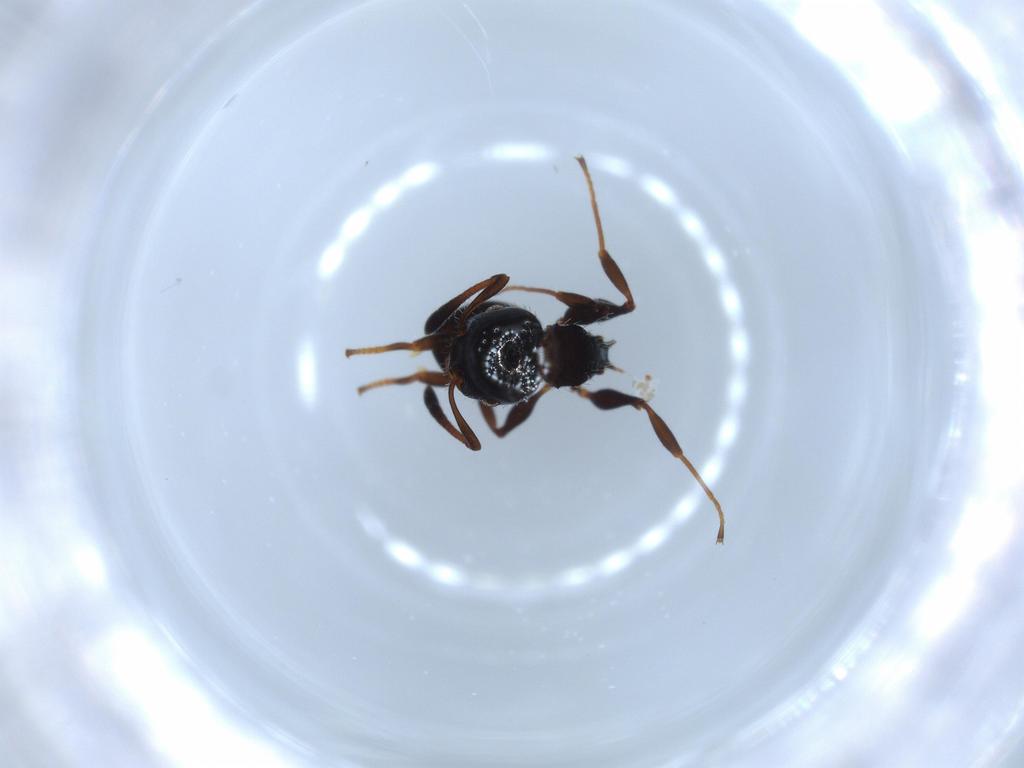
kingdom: Animalia
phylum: Arthropoda
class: Insecta
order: Hymenoptera
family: Formicidae
